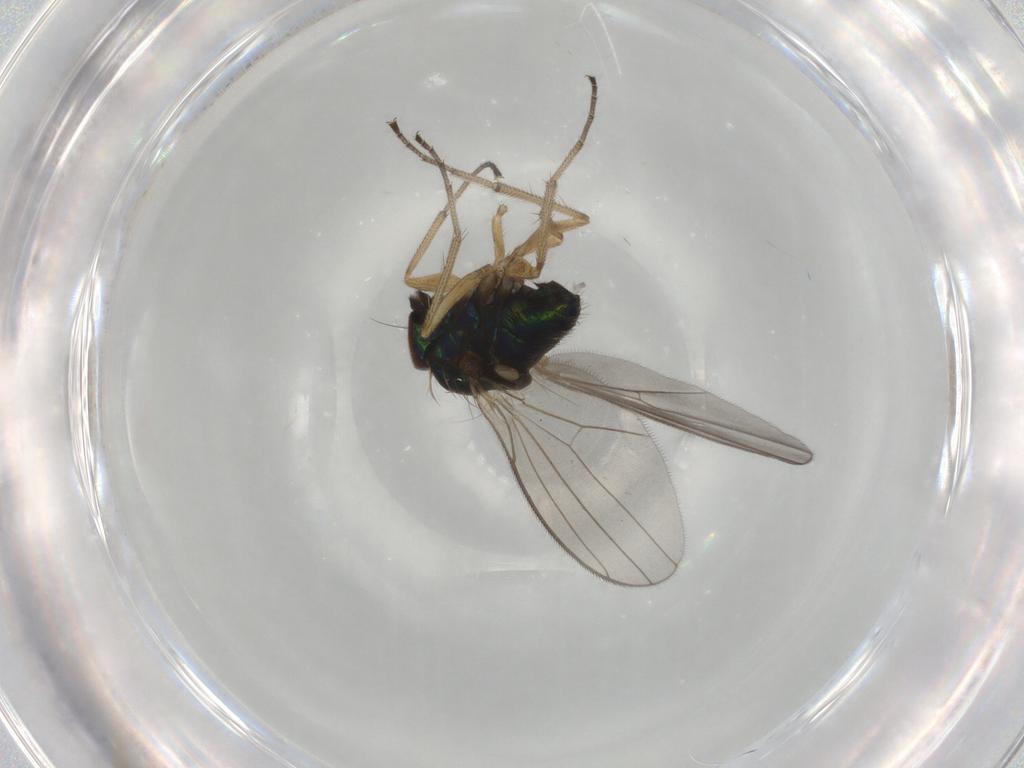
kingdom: Animalia
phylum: Arthropoda
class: Insecta
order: Diptera
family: Dolichopodidae
